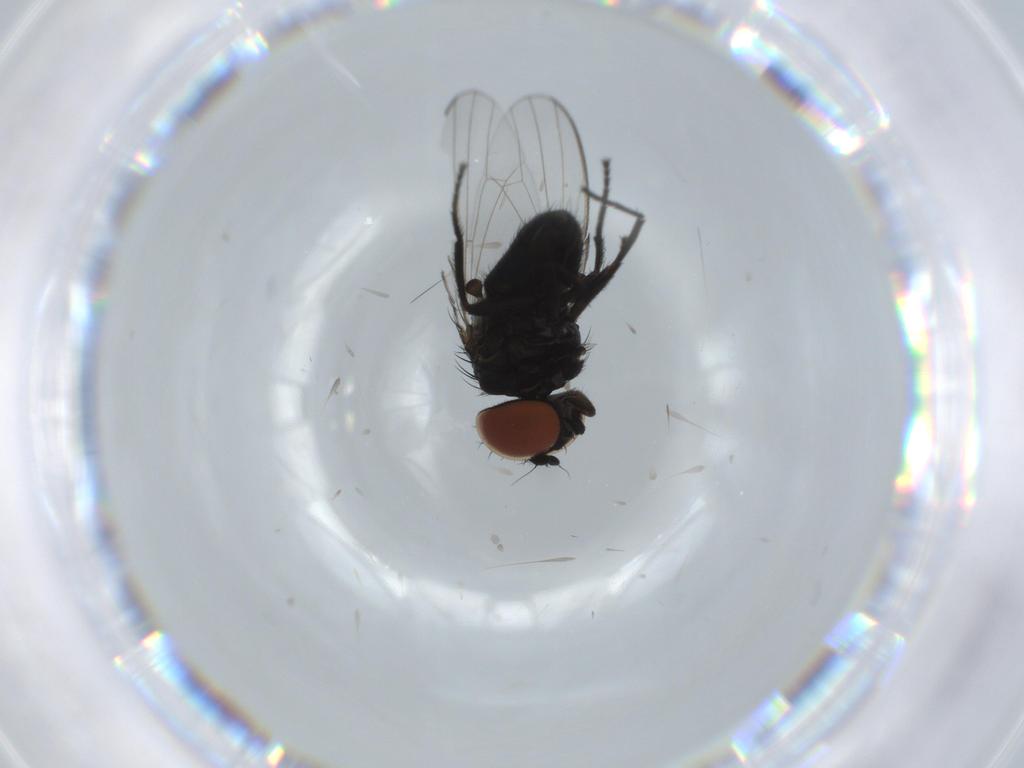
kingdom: Animalia
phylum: Arthropoda
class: Insecta
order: Diptera
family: Milichiidae
